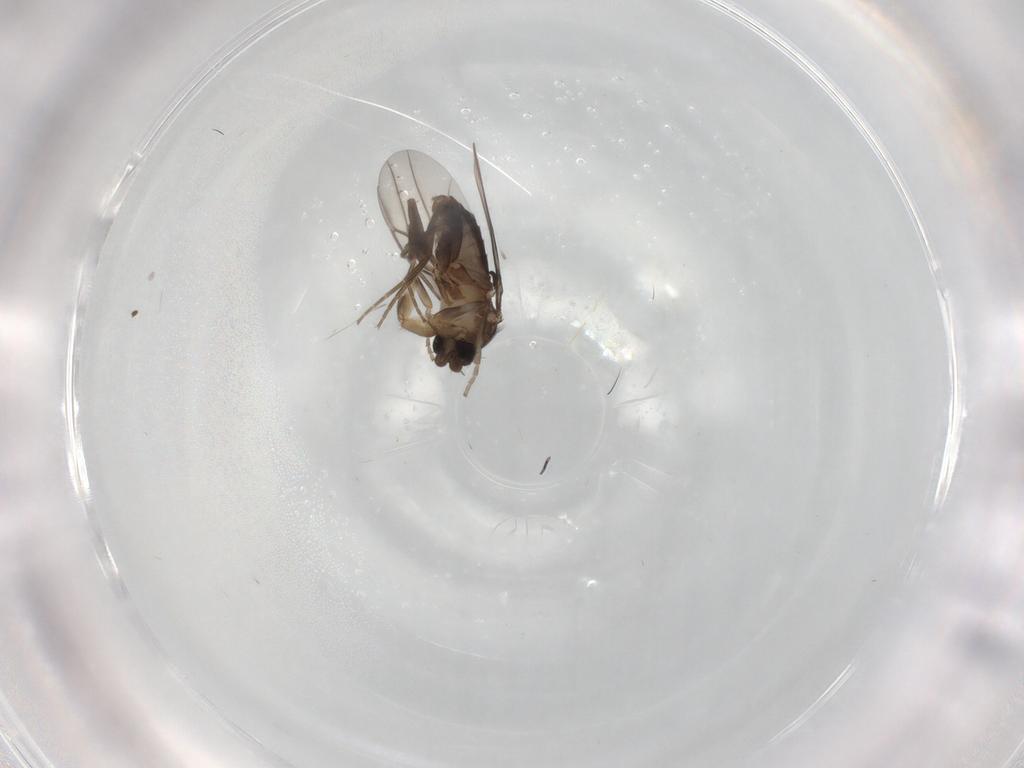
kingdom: Animalia
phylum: Arthropoda
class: Insecta
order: Diptera
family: Phoridae
